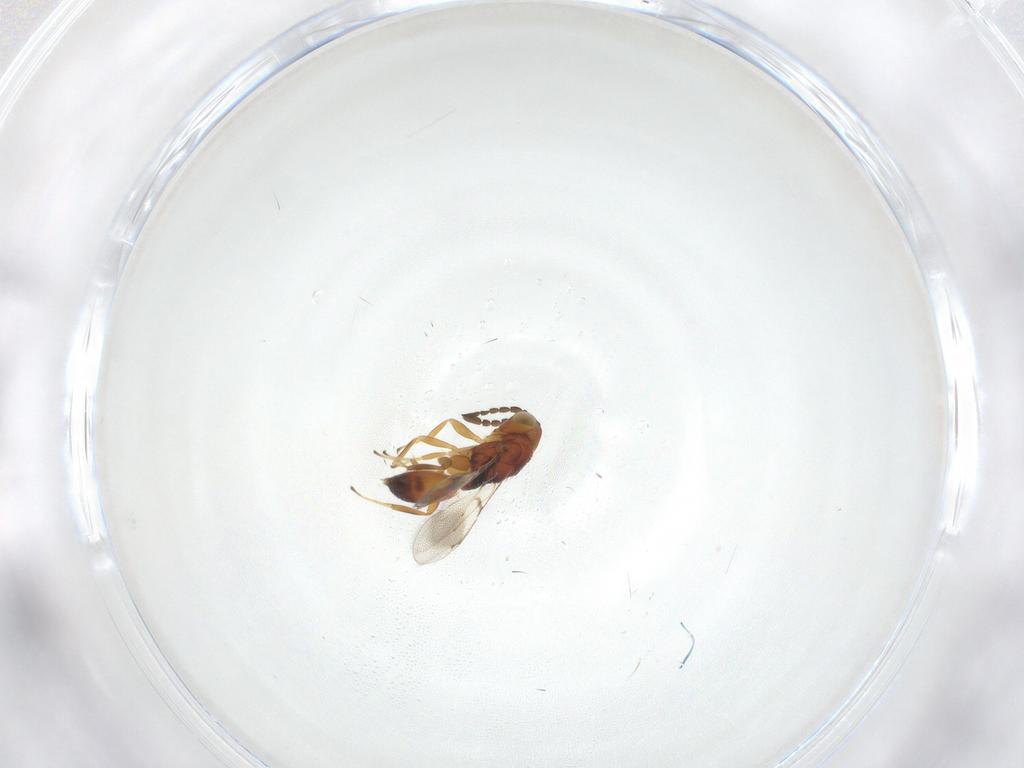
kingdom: Animalia
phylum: Arthropoda
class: Insecta
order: Hymenoptera
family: Moranilidae
